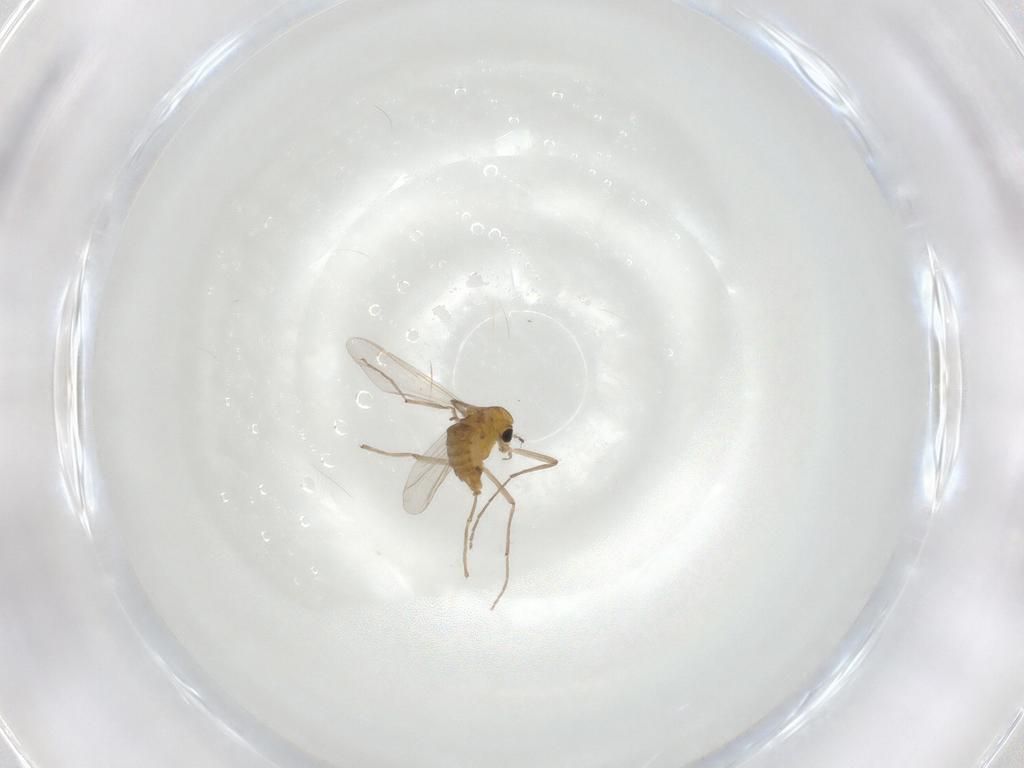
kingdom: Animalia
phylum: Arthropoda
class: Insecta
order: Diptera
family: Chironomidae
